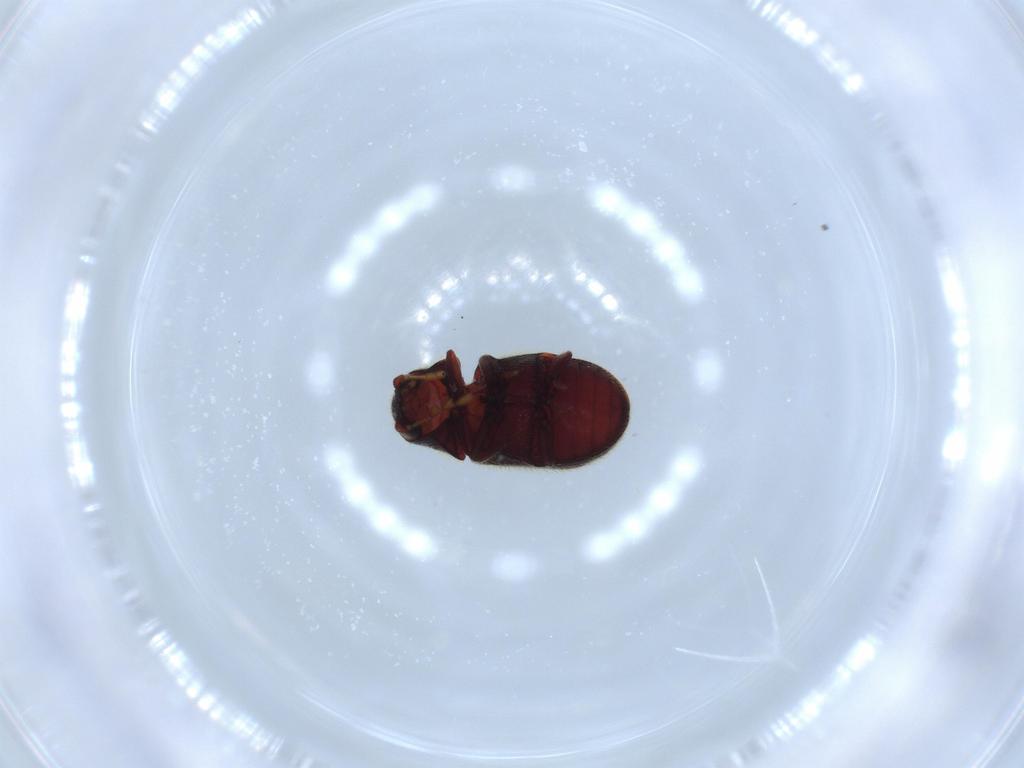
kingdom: Animalia
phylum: Arthropoda
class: Insecta
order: Coleoptera
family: Ptinidae
